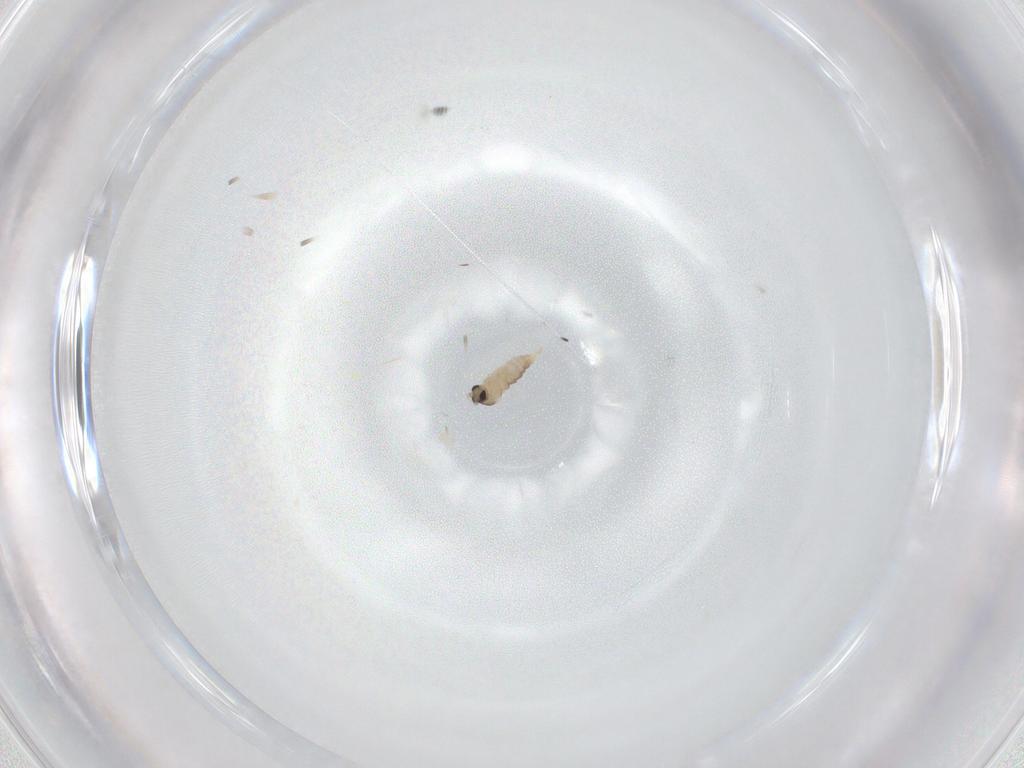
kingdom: Animalia
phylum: Arthropoda
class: Insecta
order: Diptera
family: Cecidomyiidae
